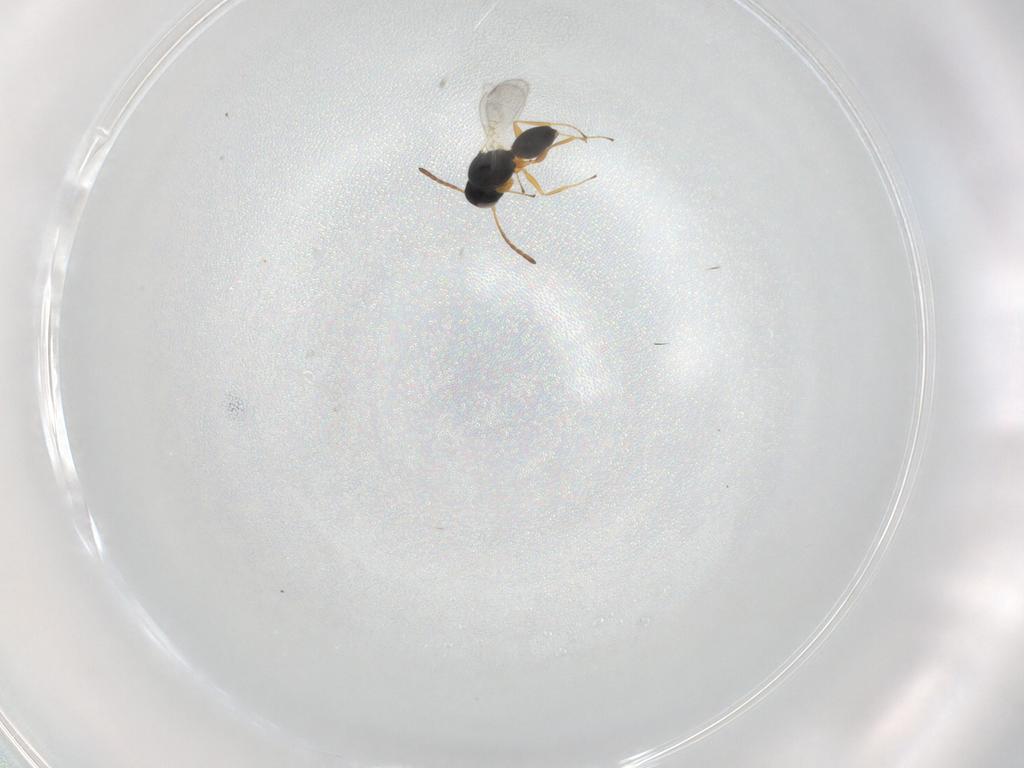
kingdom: Animalia
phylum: Arthropoda
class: Insecta
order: Hymenoptera
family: Figitidae
